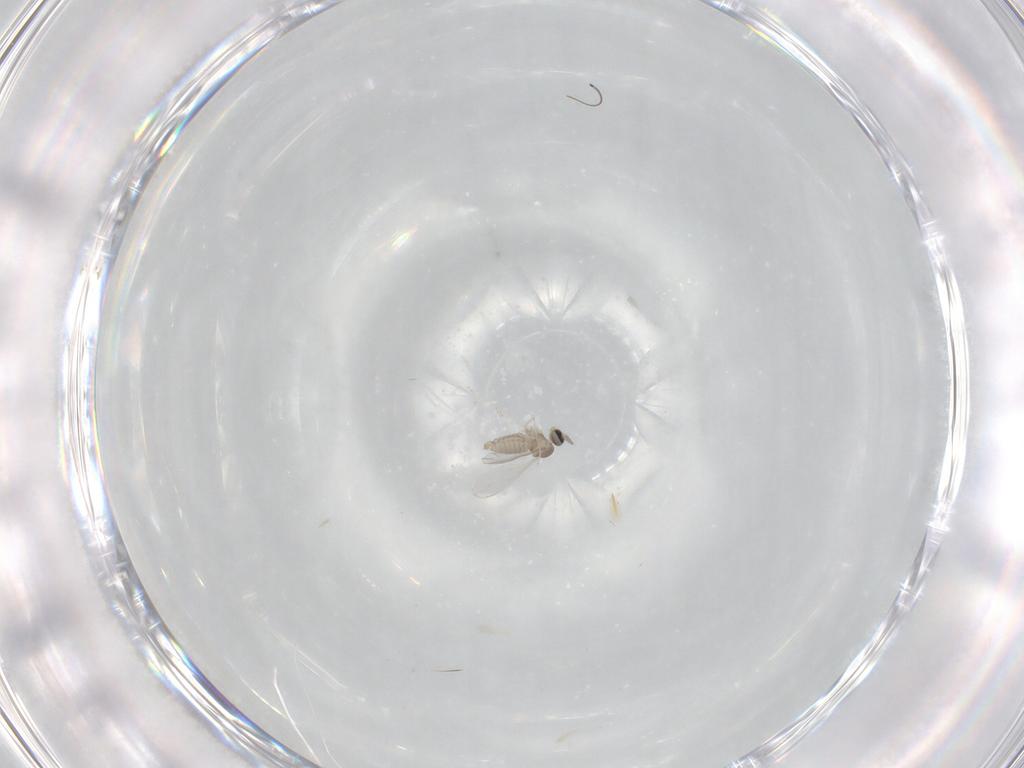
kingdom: Animalia
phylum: Arthropoda
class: Insecta
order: Diptera
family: Cecidomyiidae
